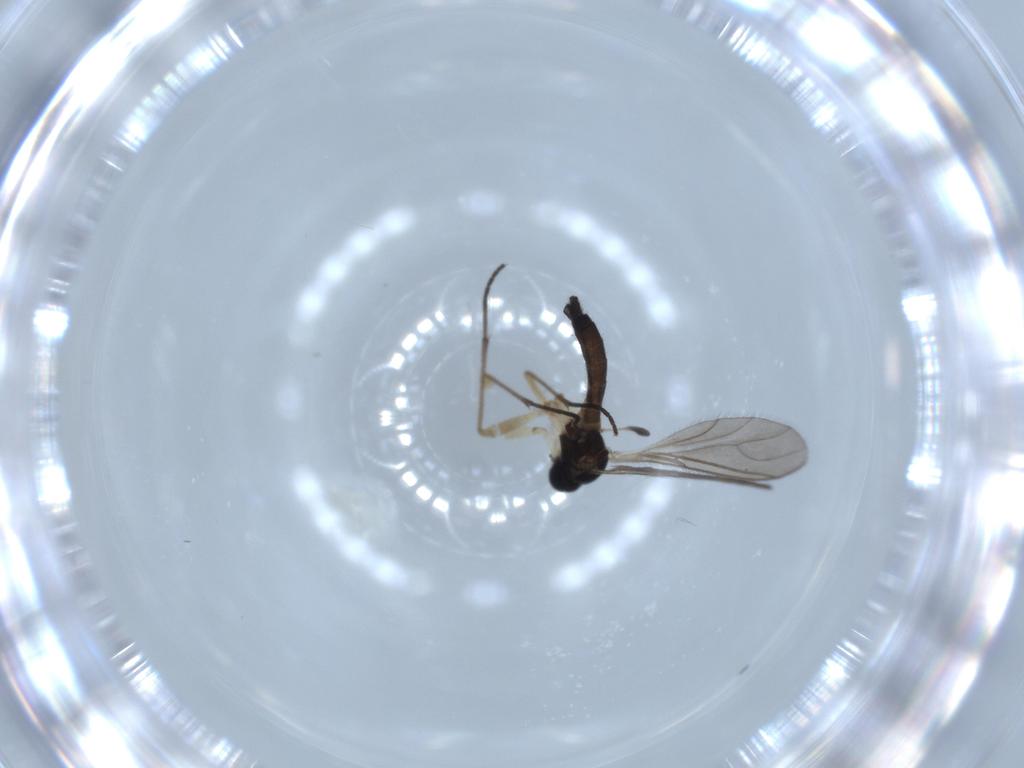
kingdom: Animalia
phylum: Arthropoda
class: Insecta
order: Diptera
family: Sciaridae
